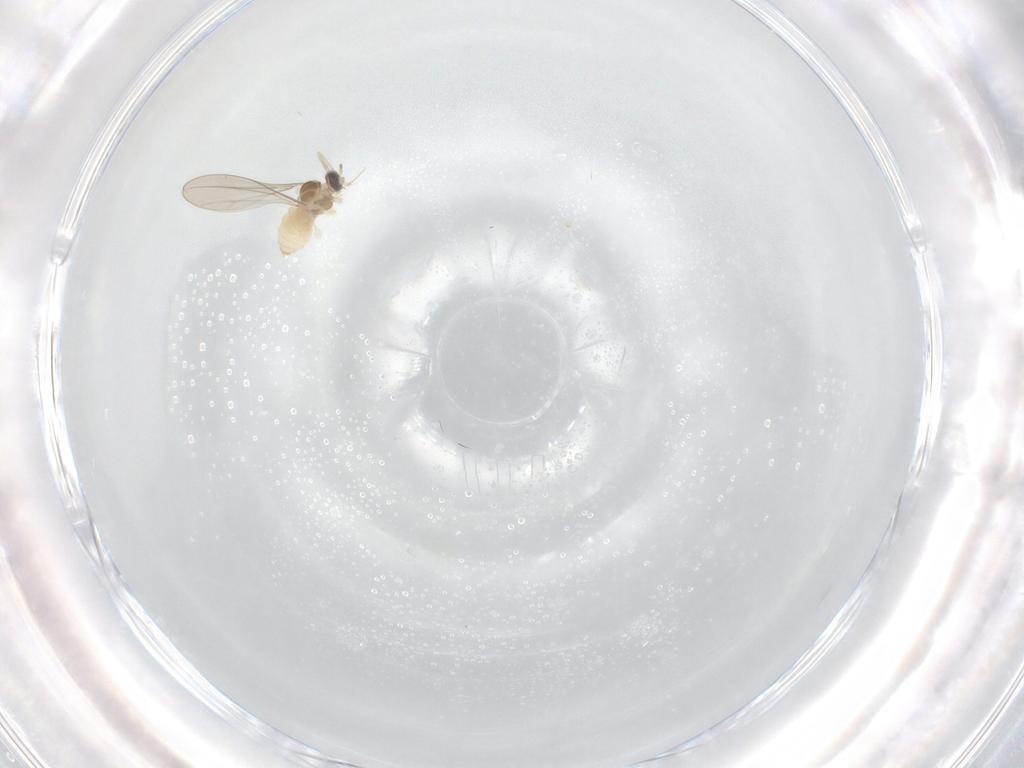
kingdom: Animalia
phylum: Arthropoda
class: Insecta
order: Diptera
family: Cecidomyiidae
